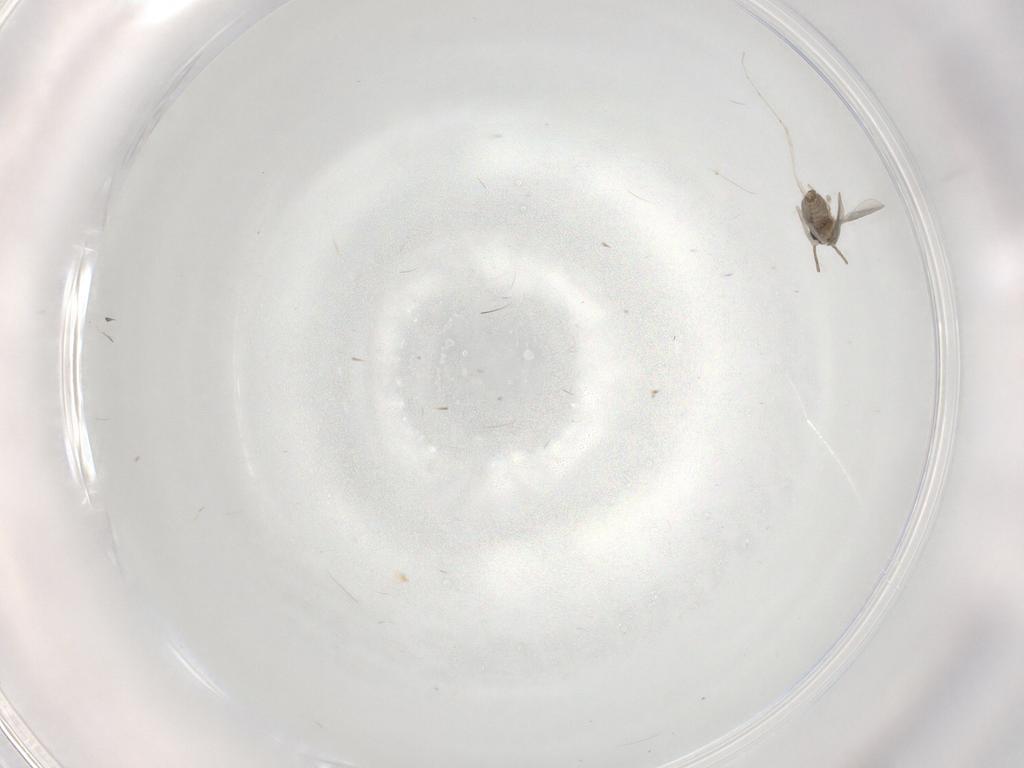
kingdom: Animalia
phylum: Arthropoda
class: Insecta
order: Diptera
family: Cecidomyiidae
